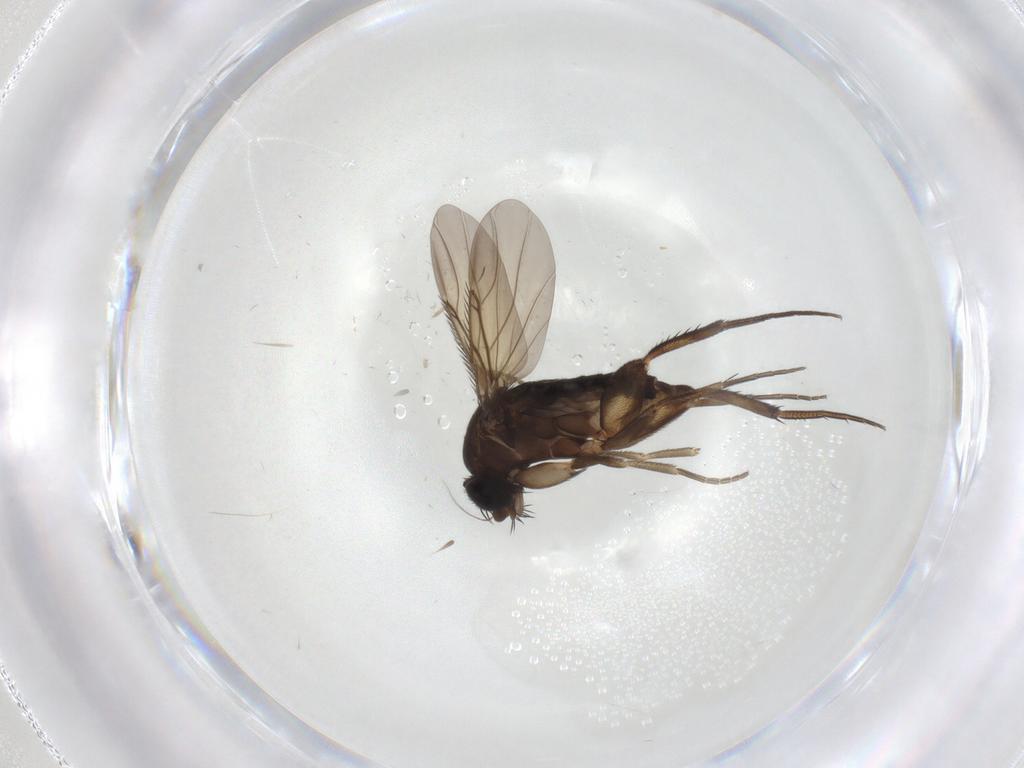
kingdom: Animalia
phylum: Arthropoda
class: Insecta
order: Diptera
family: Phoridae
